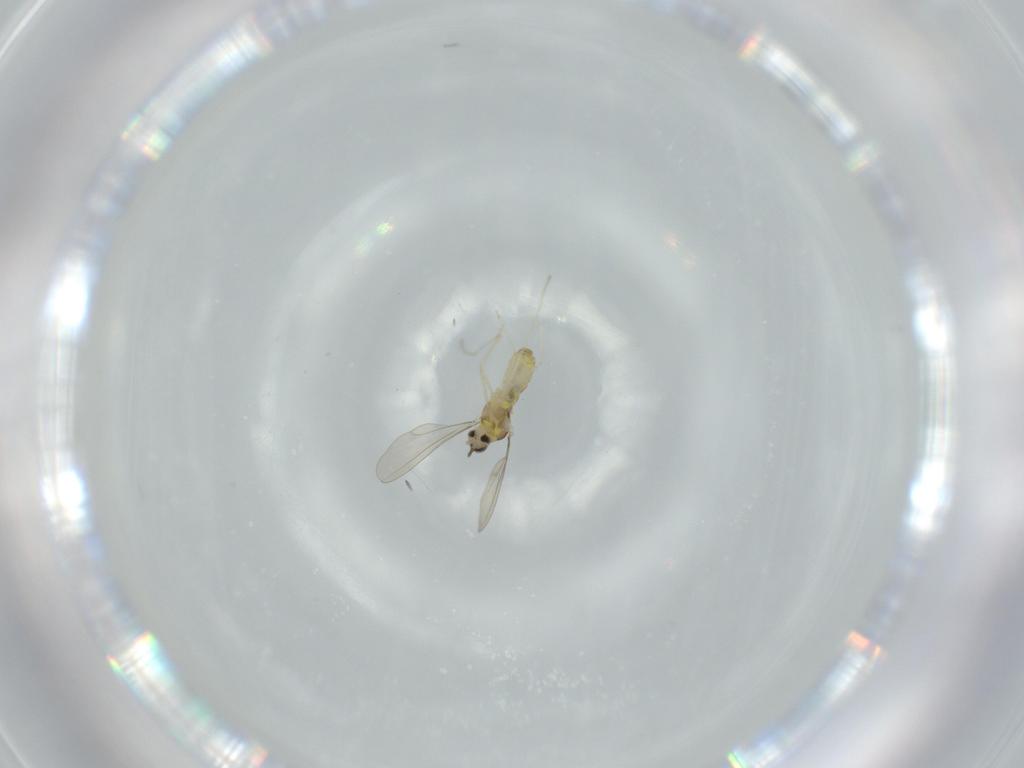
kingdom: Animalia
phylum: Arthropoda
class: Insecta
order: Diptera
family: Cecidomyiidae
